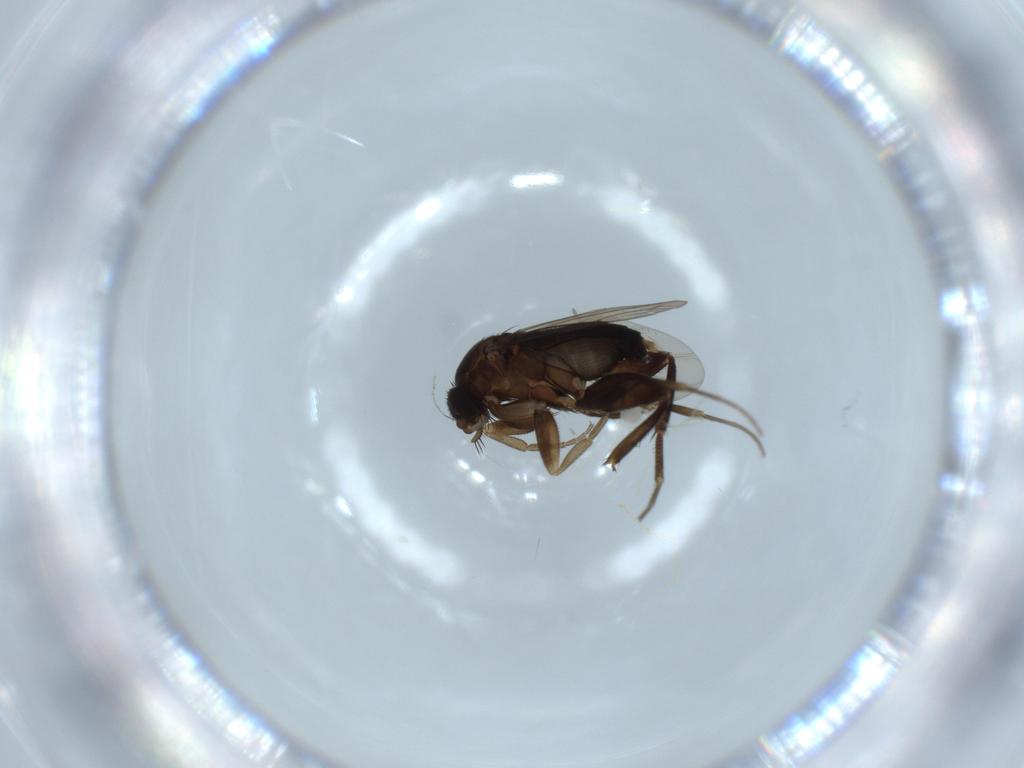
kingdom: Animalia
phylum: Arthropoda
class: Insecta
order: Diptera
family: Phoridae
